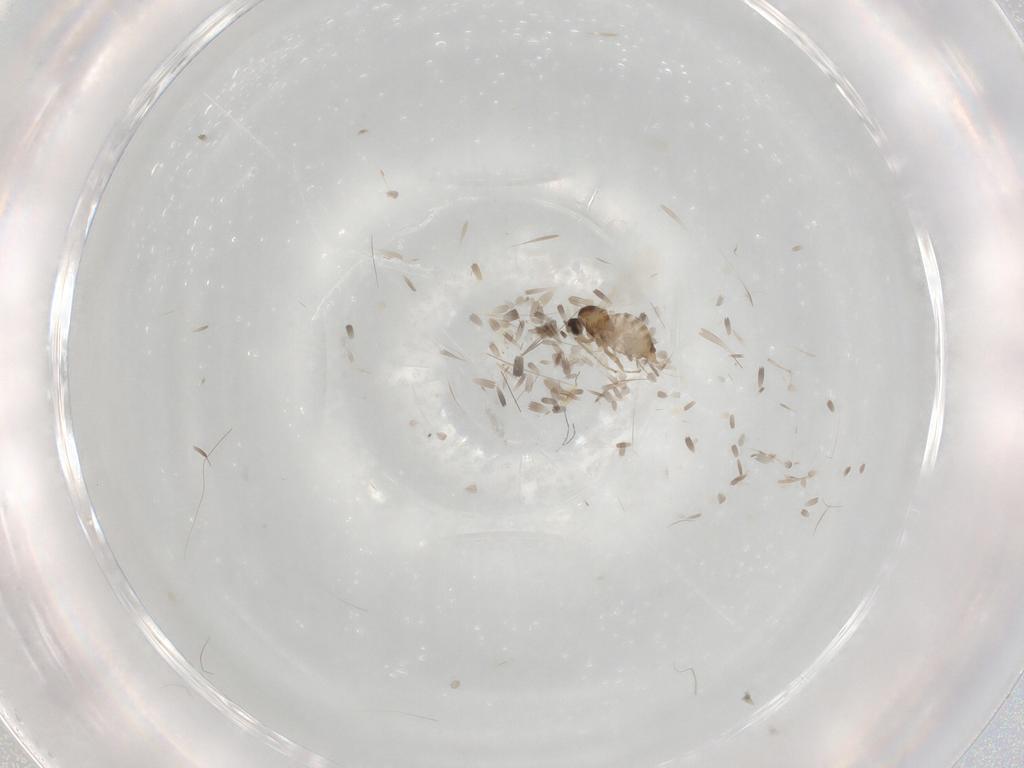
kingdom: Animalia
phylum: Arthropoda
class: Insecta
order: Diptera
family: Cecidomyiidae
